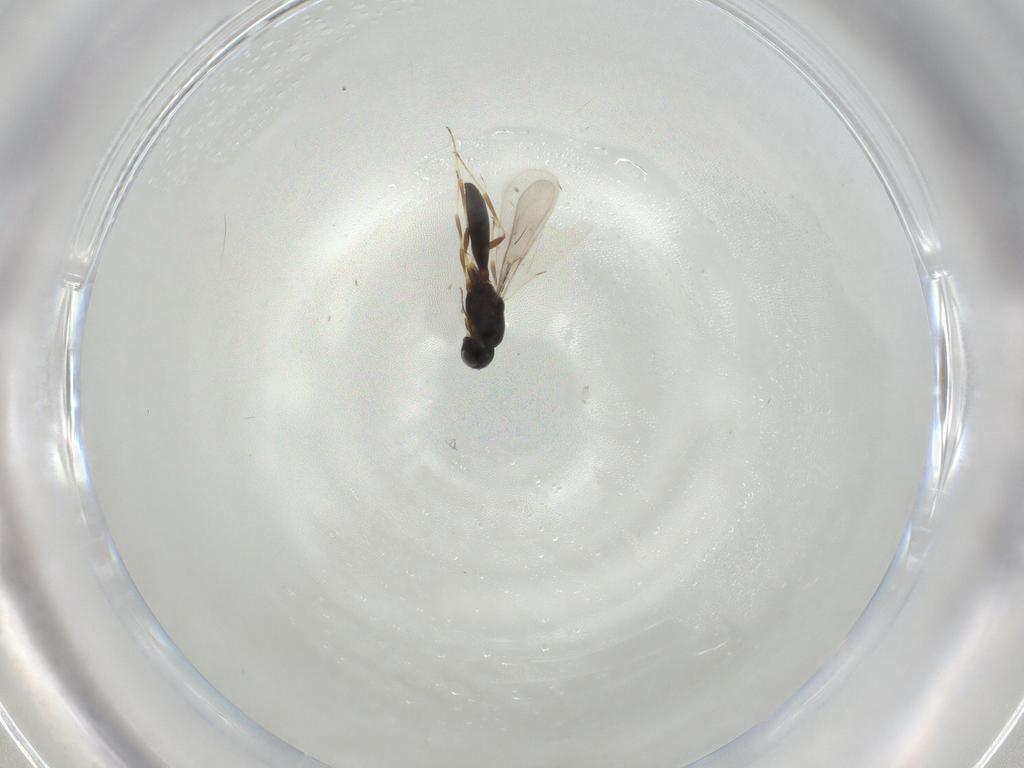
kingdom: Animalia
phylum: Arthropoda
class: Insecta
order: Hymenoptera
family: Scelionidae
